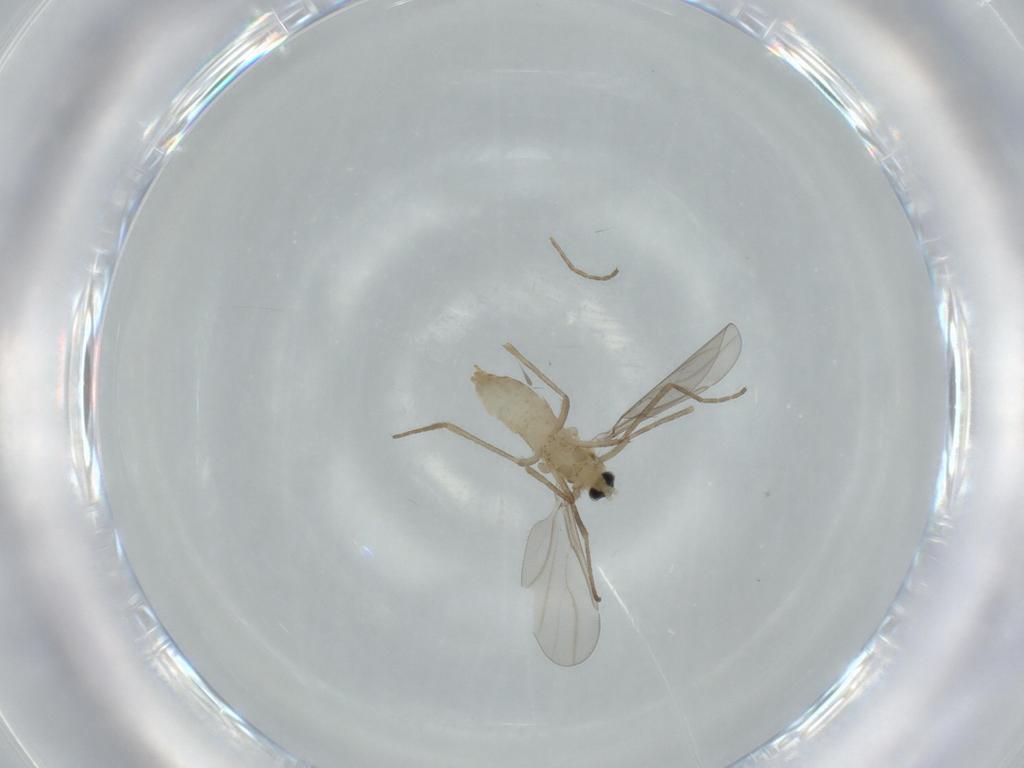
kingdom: Animalia
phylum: Arthropoda
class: Insecta
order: Diptera
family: Cecidomyiidae
